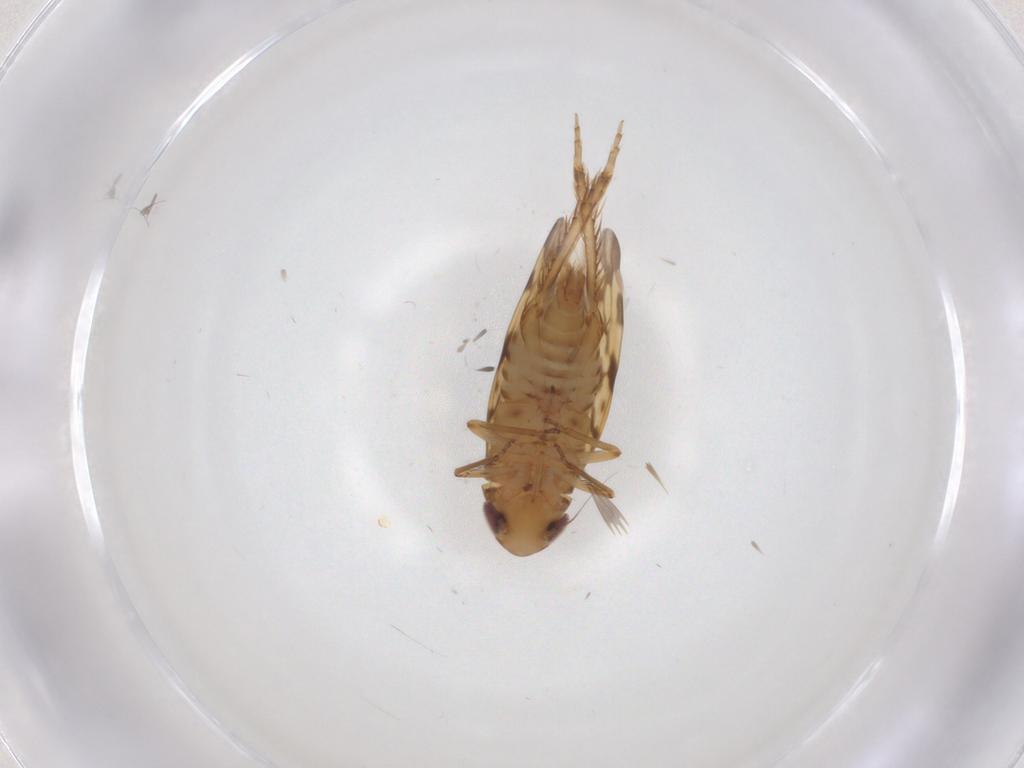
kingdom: Animalia
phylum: Arthropoda
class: Insecta
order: Hemiptera
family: Cicadellidae
